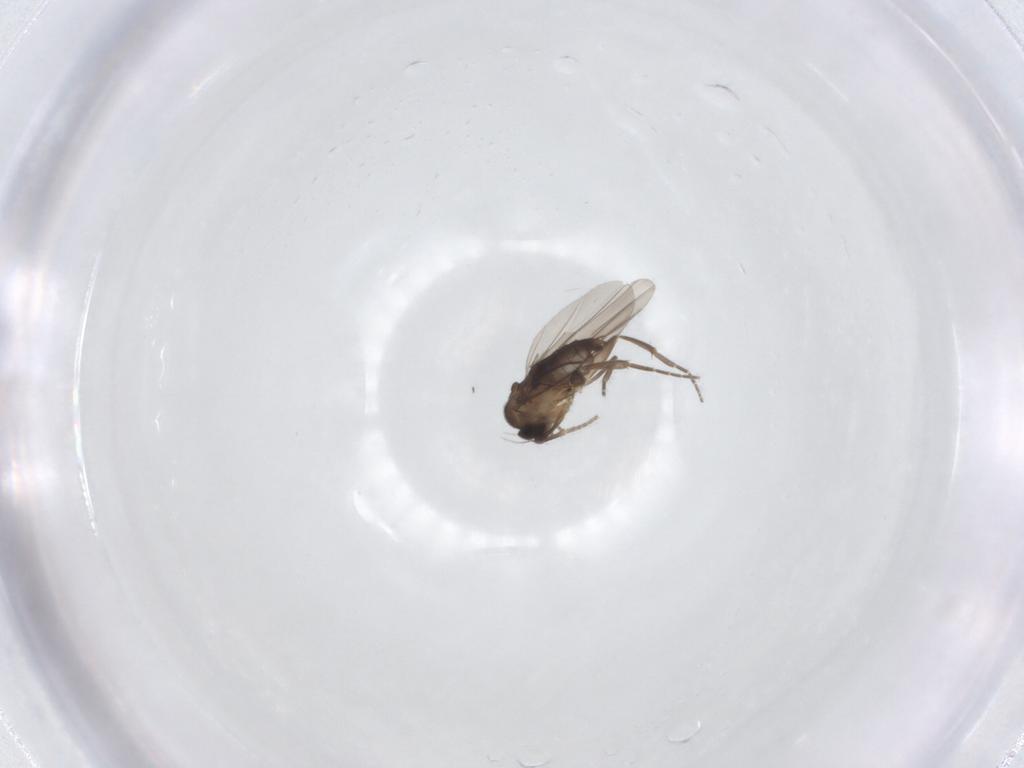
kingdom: Animalia
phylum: Arthropoda
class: Insecta
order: Diptera
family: Phoridae
